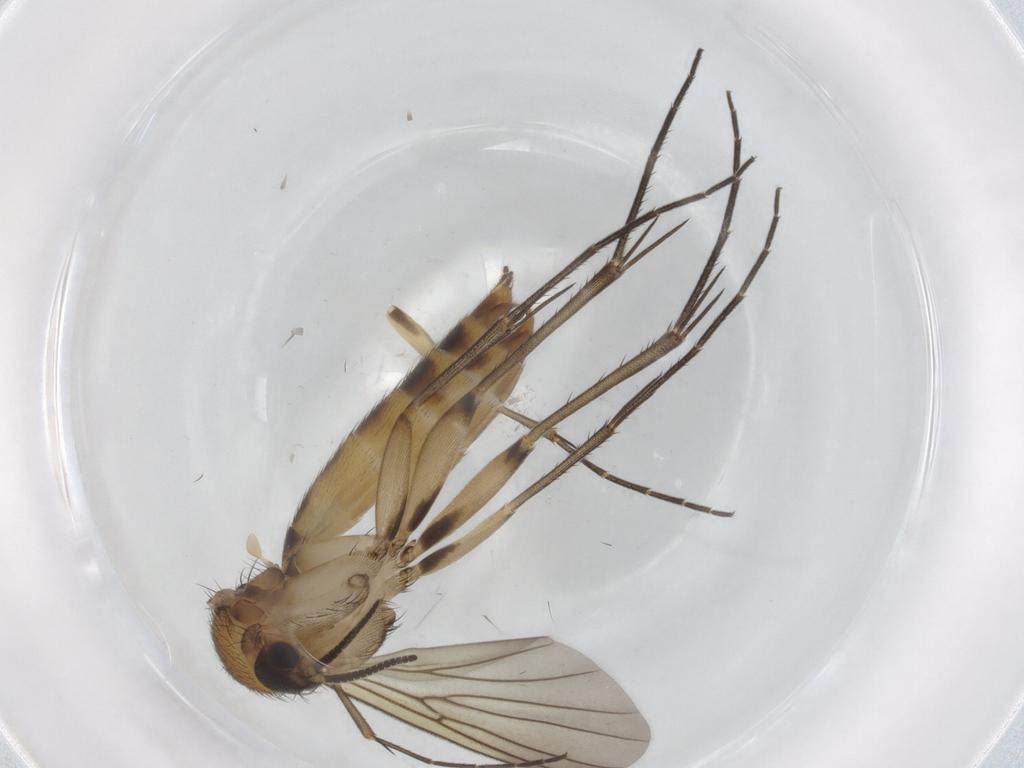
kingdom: Animalia
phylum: Arthropoda
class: Insecta
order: Diptera
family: Mycetophilidae
